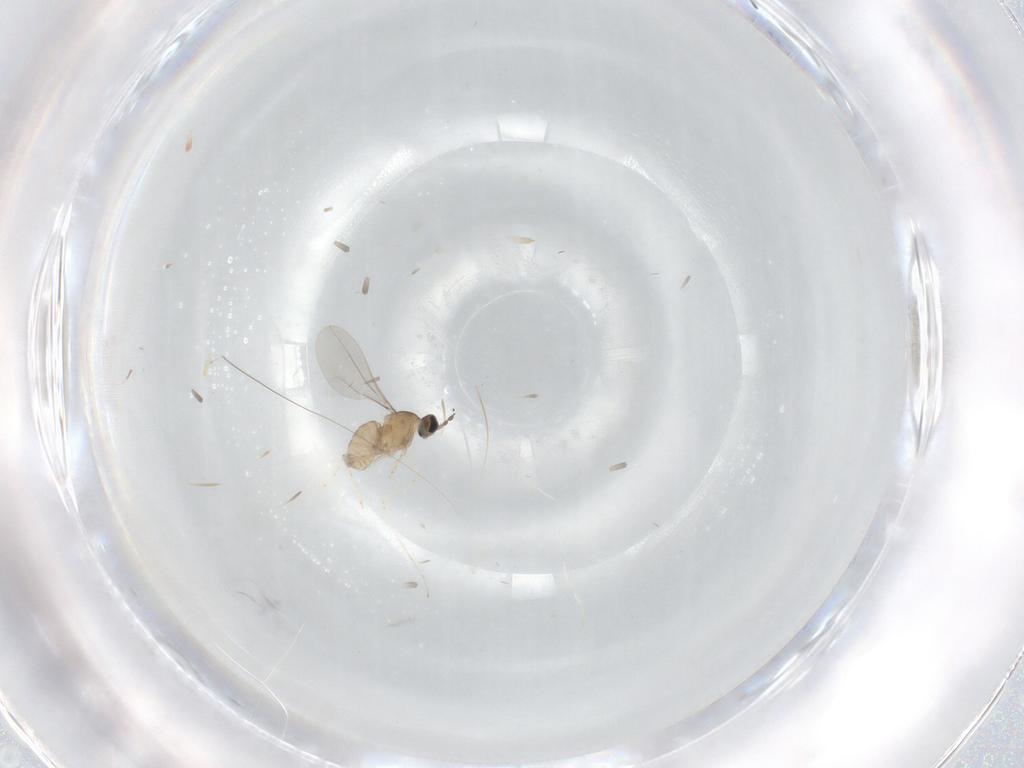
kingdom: Animalia
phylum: Arthropoda
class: Insecta
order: Diptera
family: Cecidomyiidae
